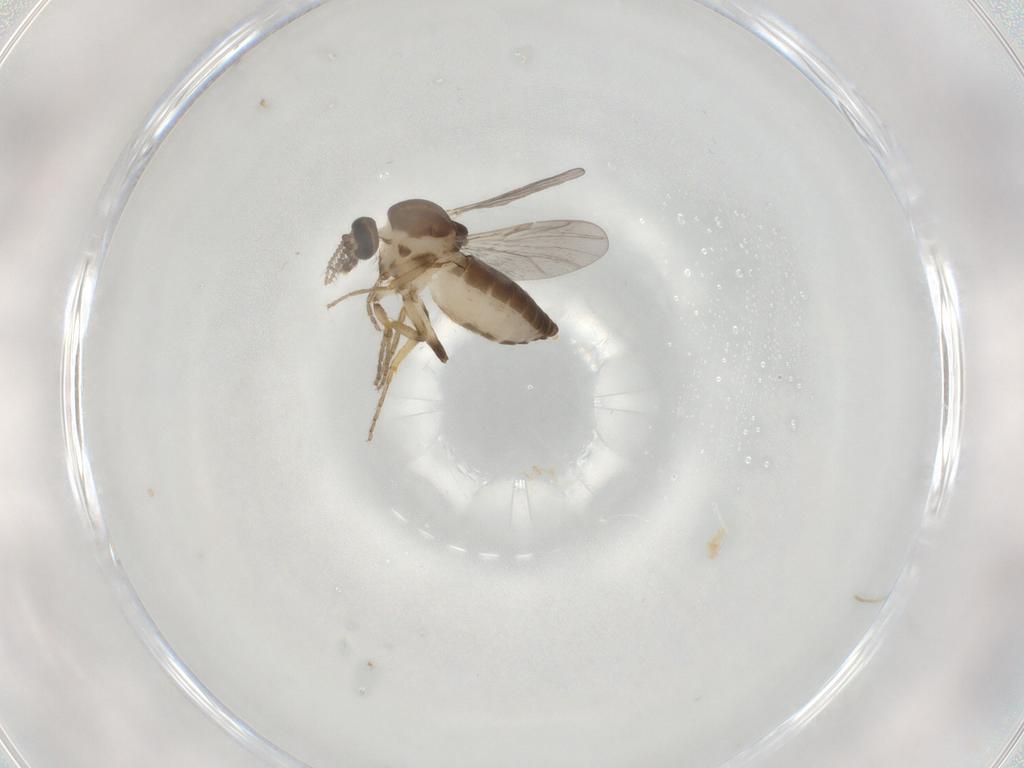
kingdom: Animalia
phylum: Arthropoda
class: Insecta
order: Diptera
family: Ceratopogonidae
